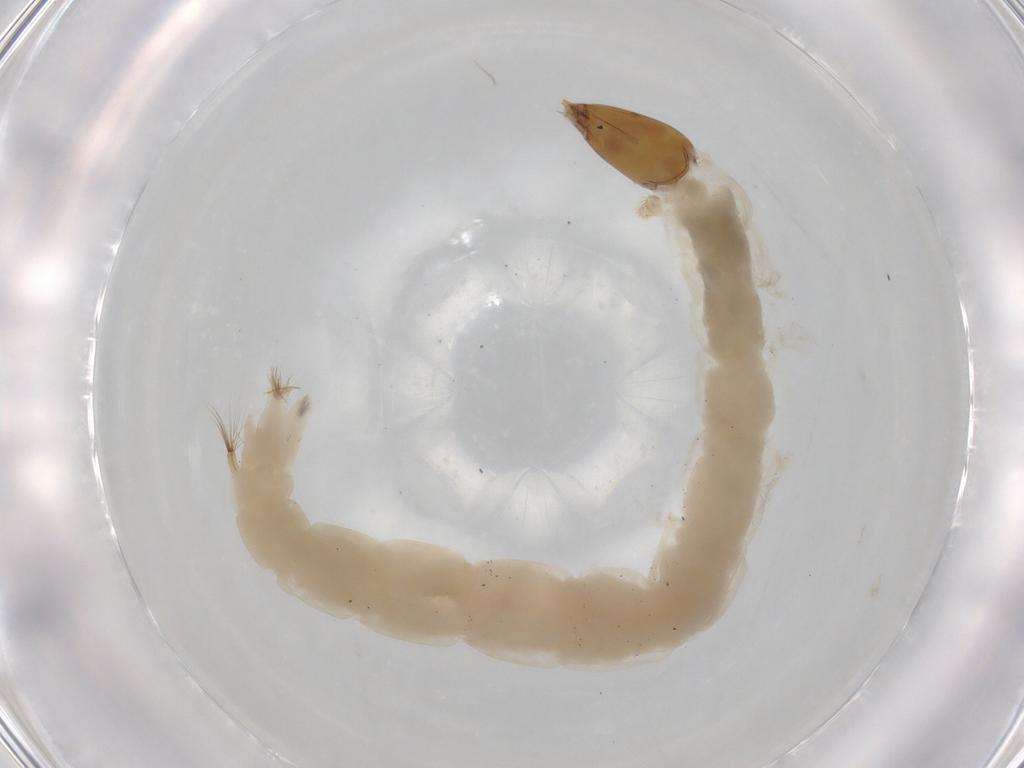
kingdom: Animalia
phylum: Arthropoda
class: Insecta
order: Diptera
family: Chironomidae
